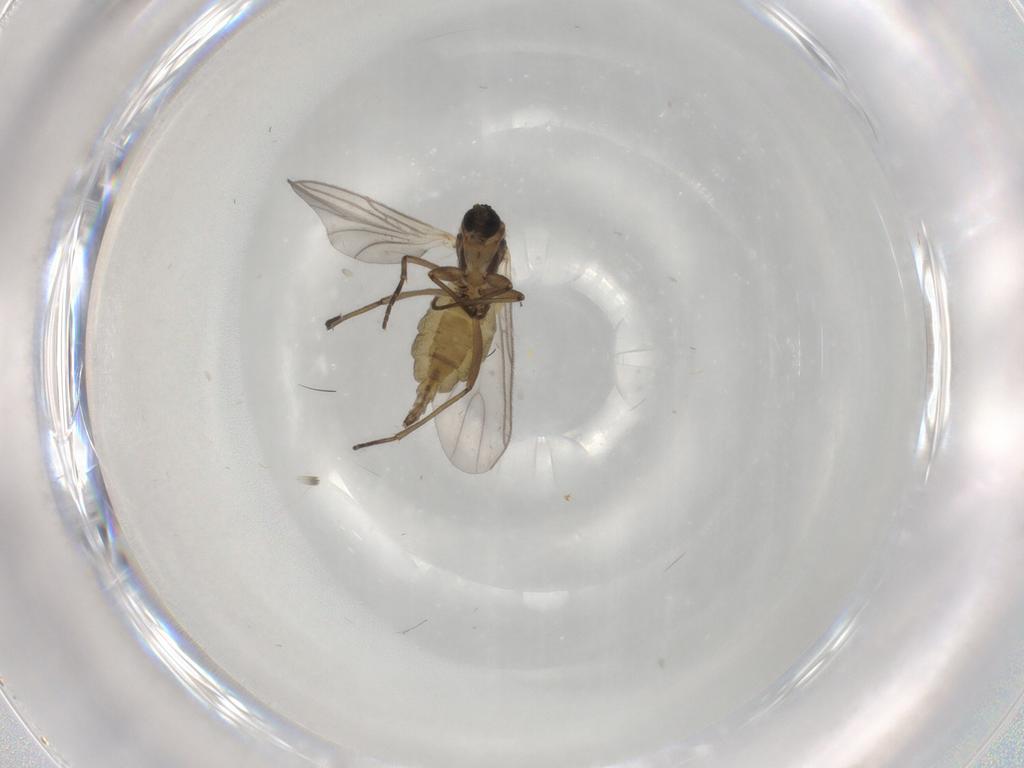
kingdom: Animalia
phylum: Arthropoda
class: Insecta
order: Diptera
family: Sciaridae
